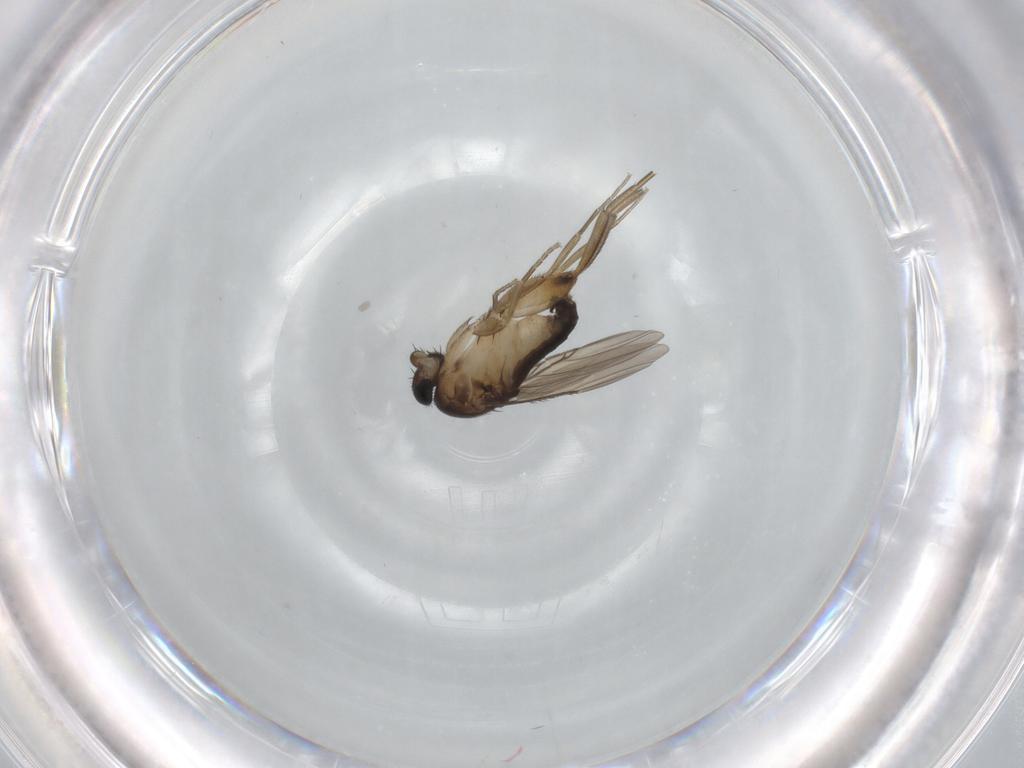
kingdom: Animalia
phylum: Arthropoda
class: Insecta
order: Diptera
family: Phoridae
